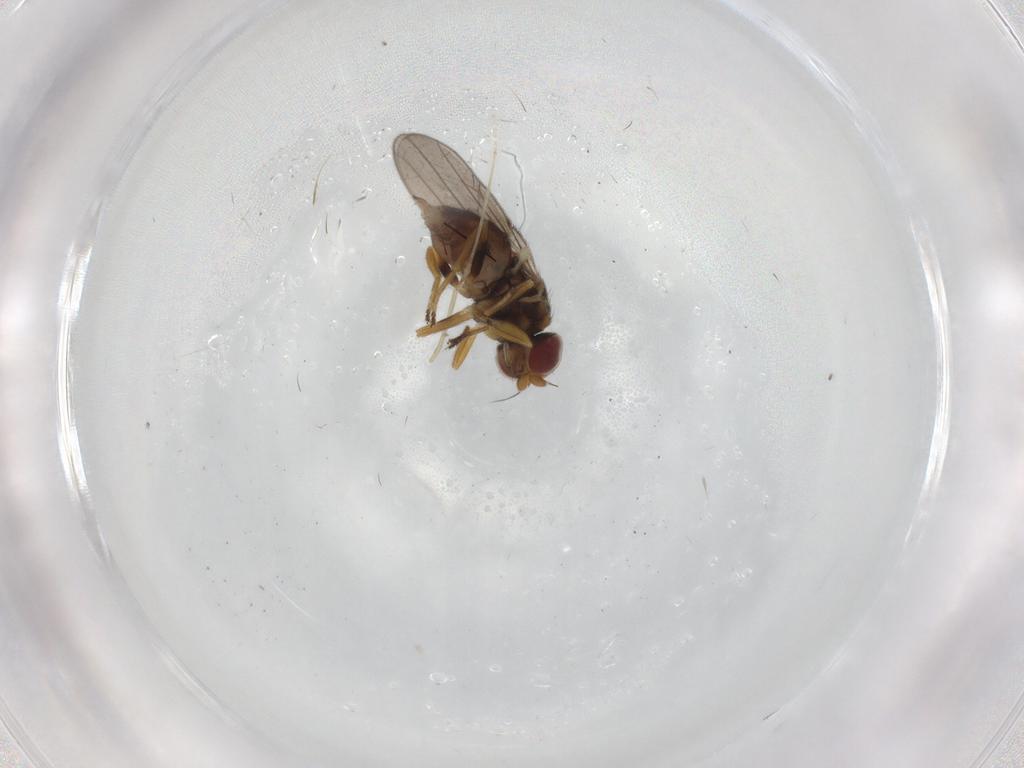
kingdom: Animalia
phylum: Arthropoda
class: Insecta
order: Diptera
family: Chloropidae
